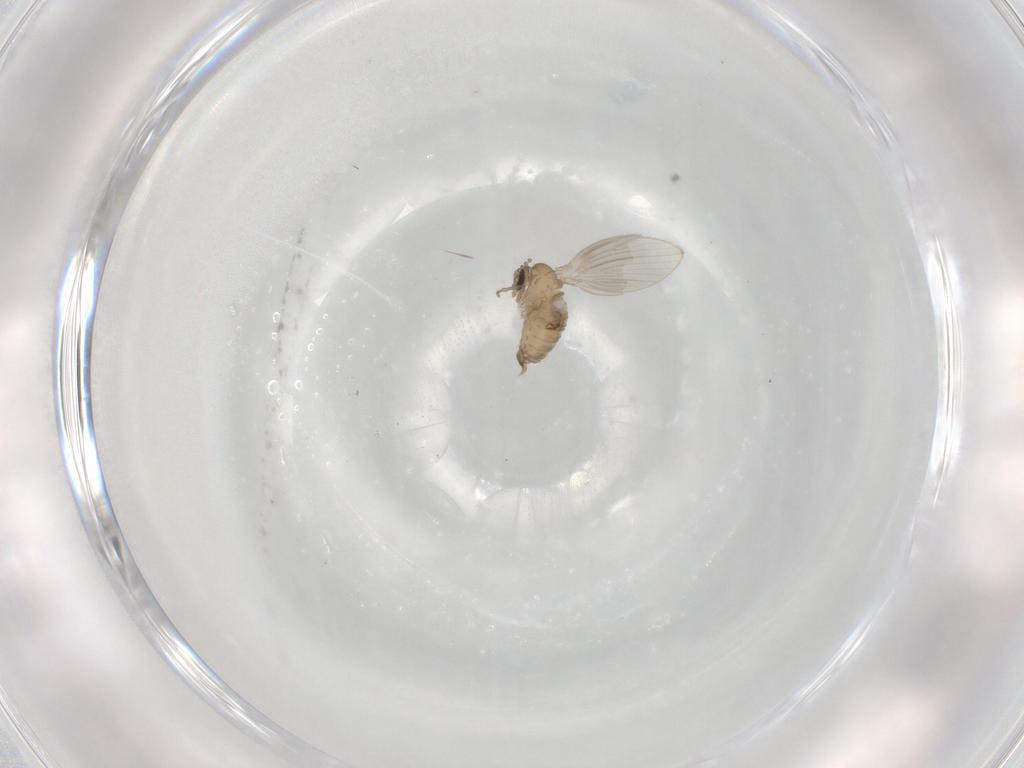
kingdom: Animalia
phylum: Arthropoda
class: Insecta
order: Diptera
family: Psychodidae
